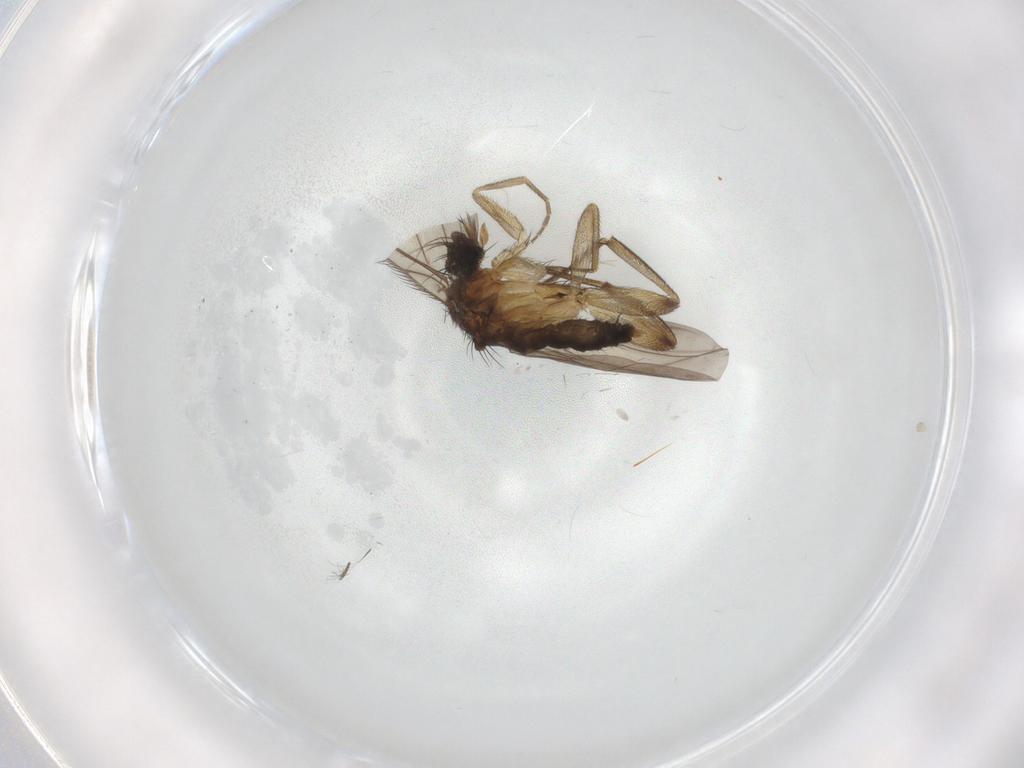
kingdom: Animalia
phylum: Arthropoda
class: Insecta
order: Diptera
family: Phoridae
